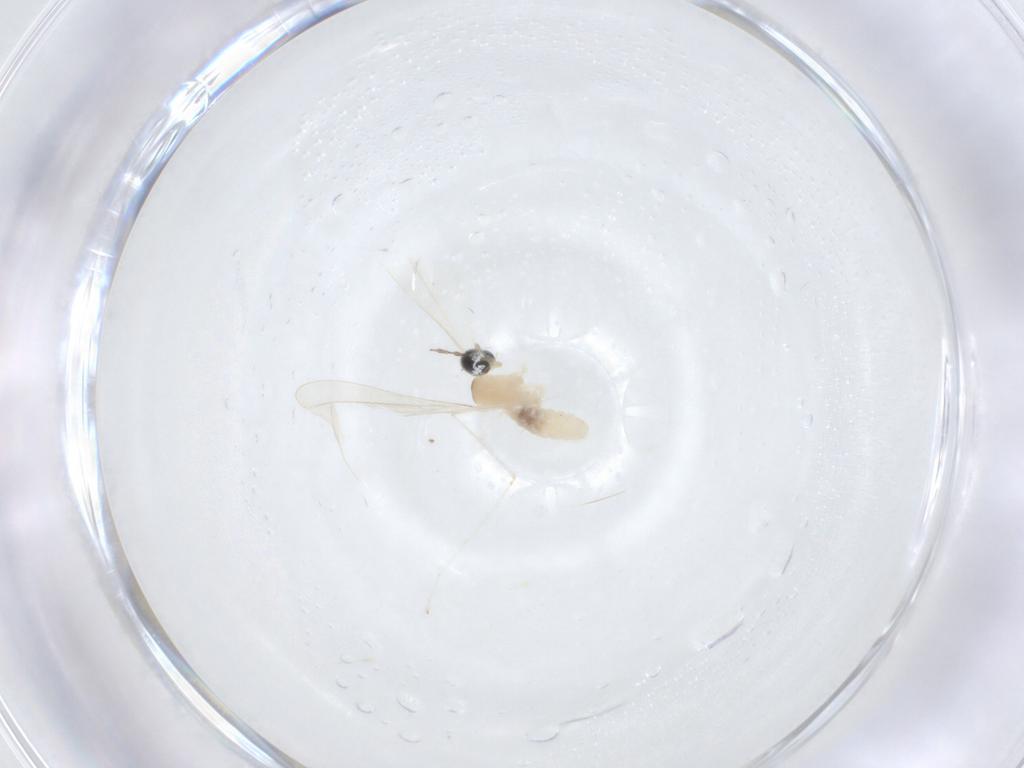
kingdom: Animalia
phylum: Arthropoda
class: Insecta
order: Diptera
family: Cecidomyiidae
